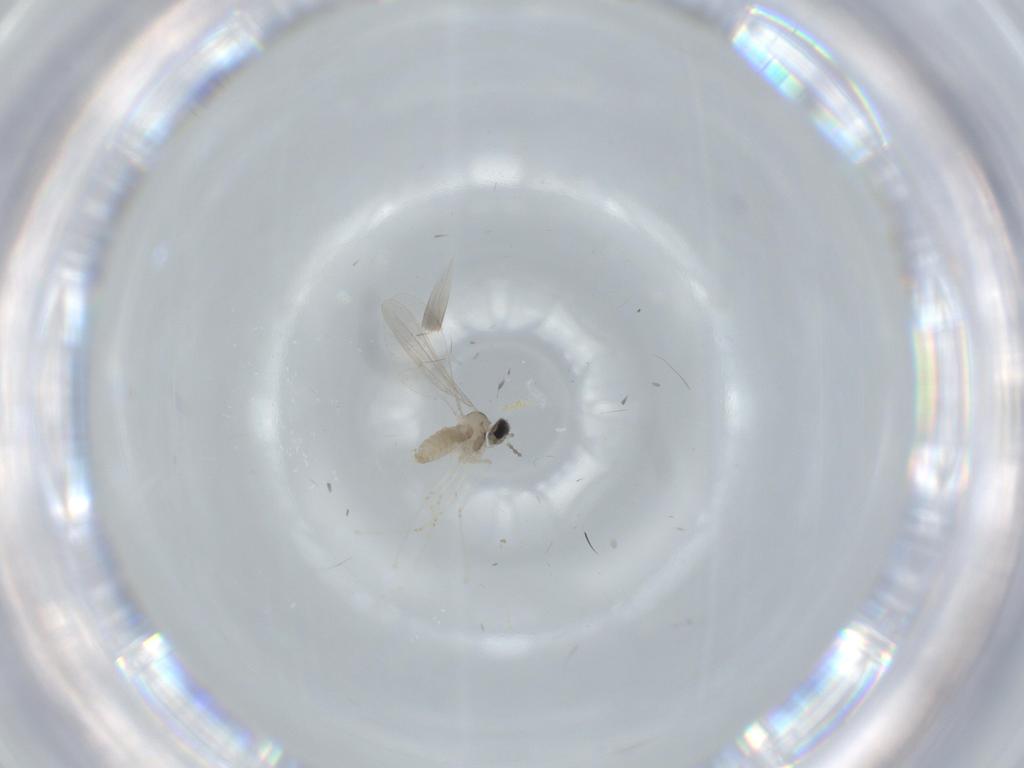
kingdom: Animalia
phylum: Arthropoda
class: Insecta
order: Diptera
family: Cecidomyiidae
